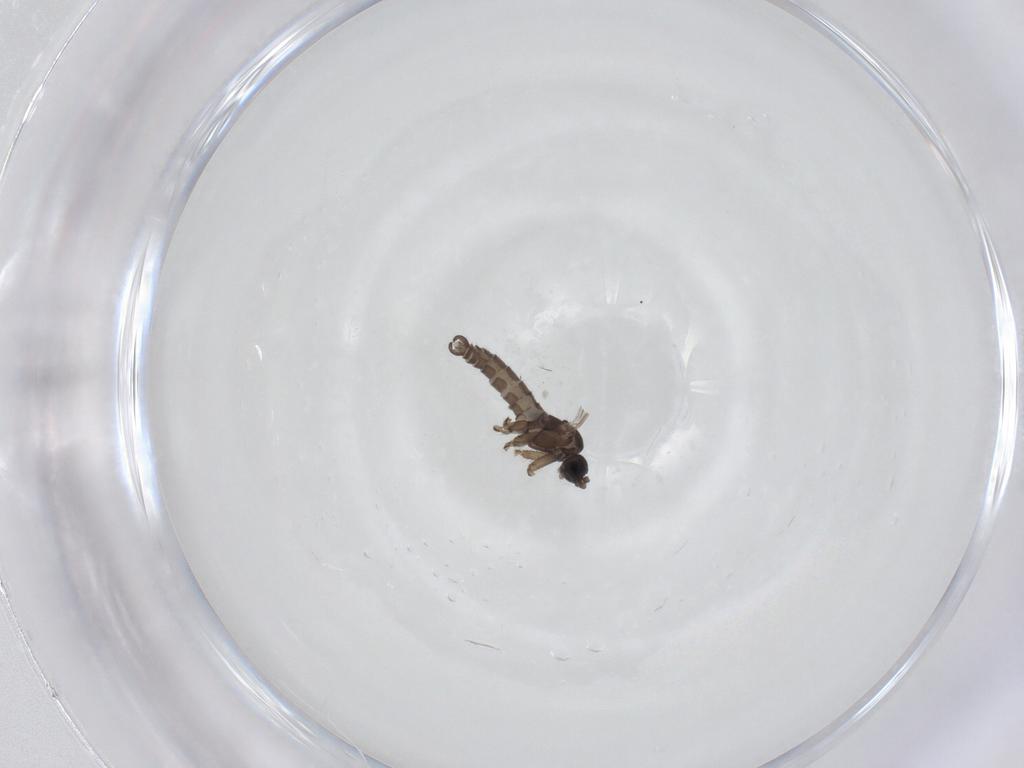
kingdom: Animalia
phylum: Arthropoda
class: Insecta
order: Diptera
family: Sciaridae
